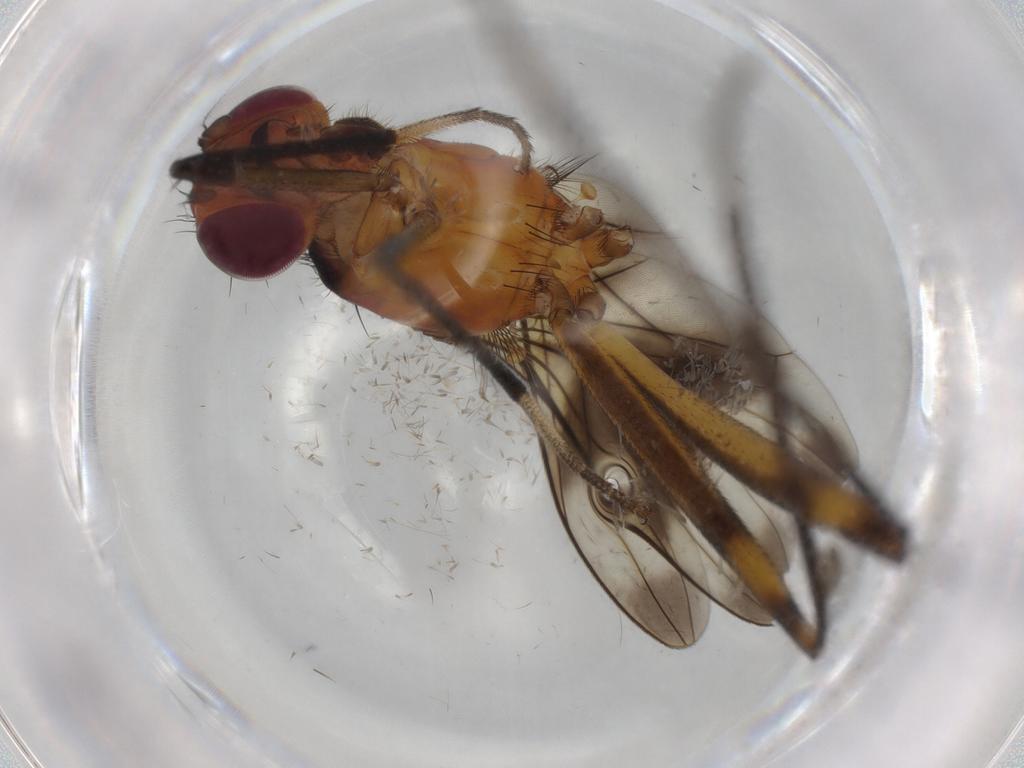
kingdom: Animalia
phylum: Arthropoda
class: Insecta
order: Diptera
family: Micropezidae
